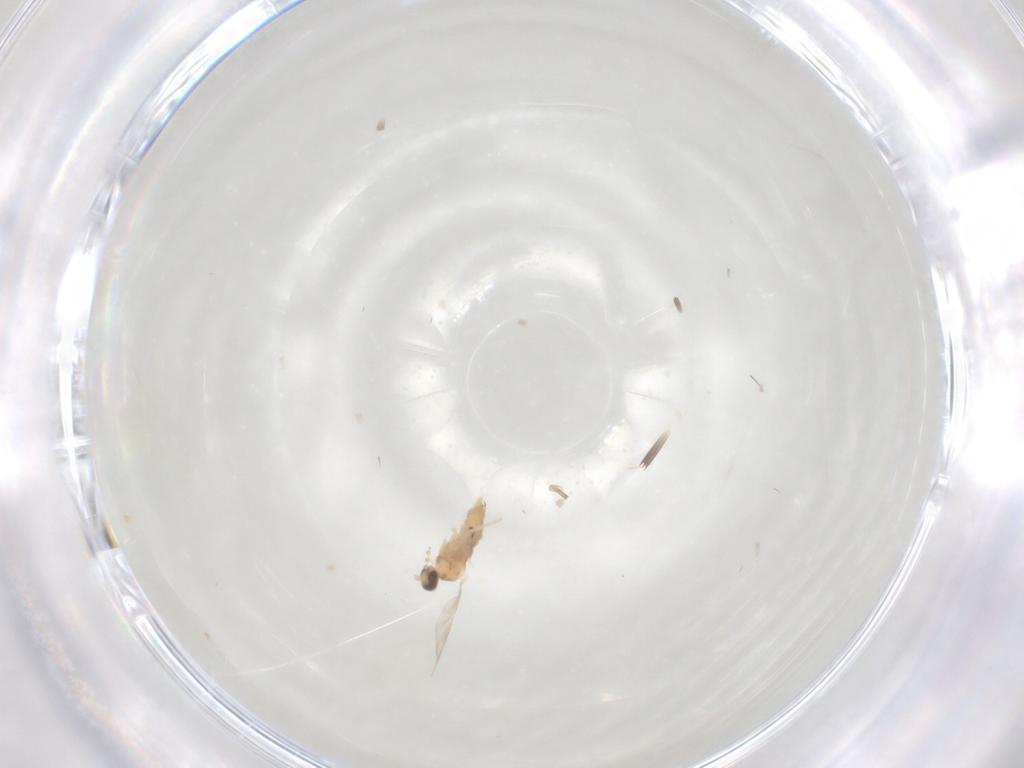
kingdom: Animalia
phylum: Arthropoda
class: Insecta
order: Diptera
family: Cecidomyiidae
